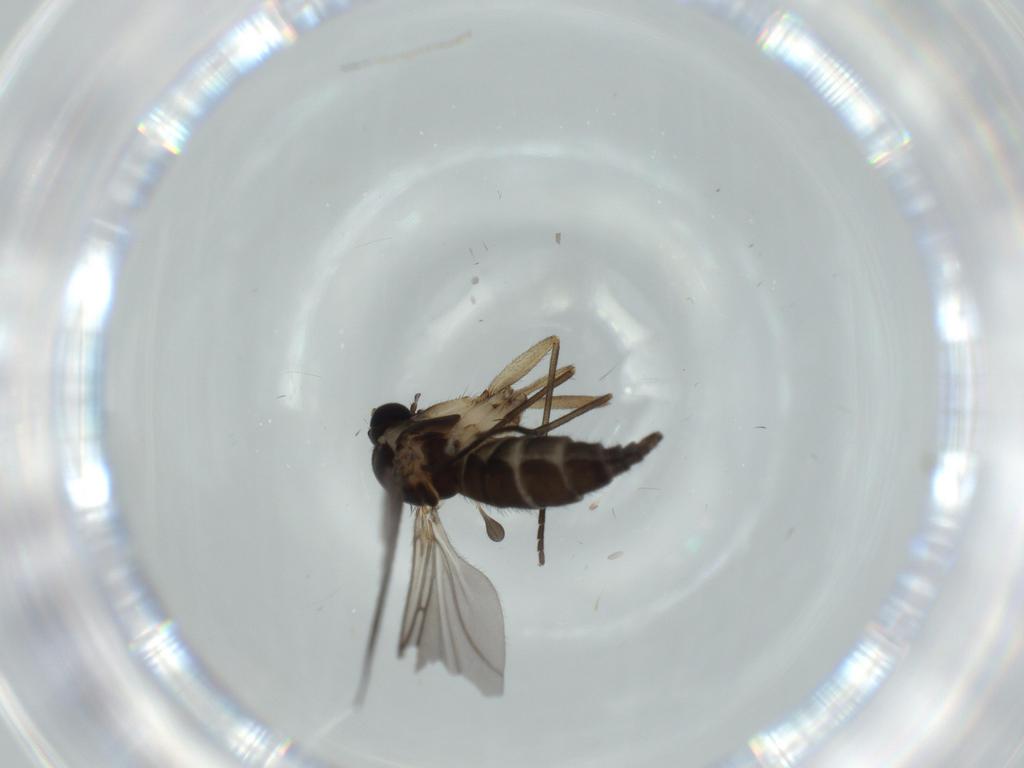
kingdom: Animalia
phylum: Arthropoda
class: Insecta
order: Diptera
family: Sciaridae
